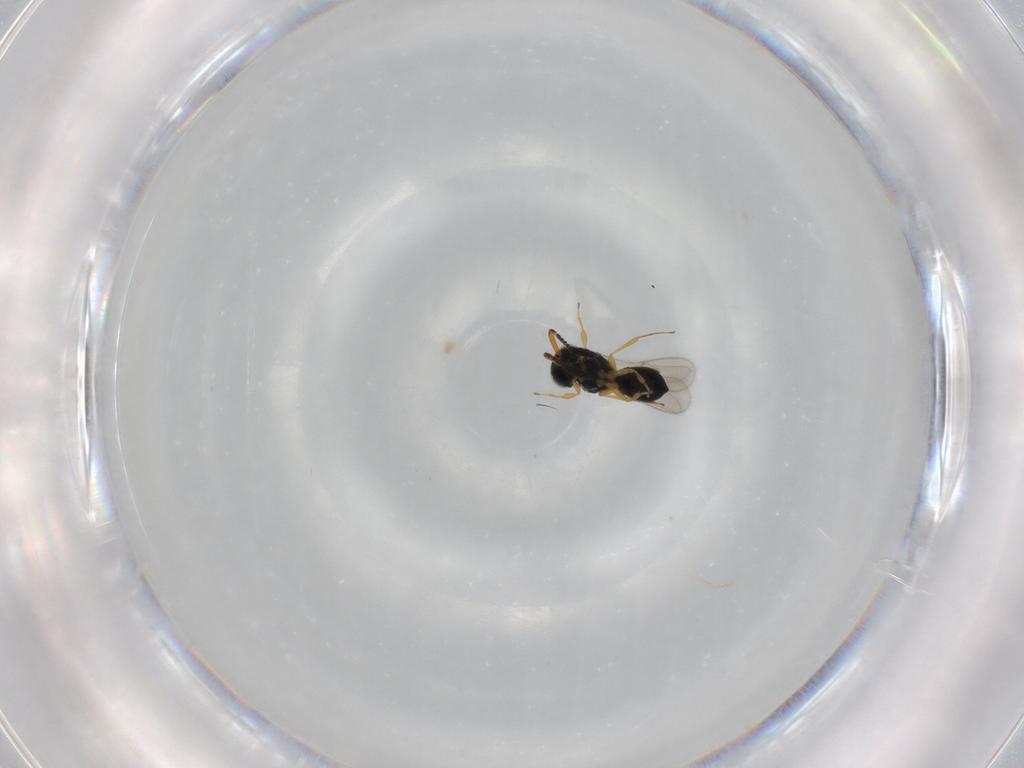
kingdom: Animalia
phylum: Arthropoda
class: Insecta
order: Hymenoptera
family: Scelionidae
